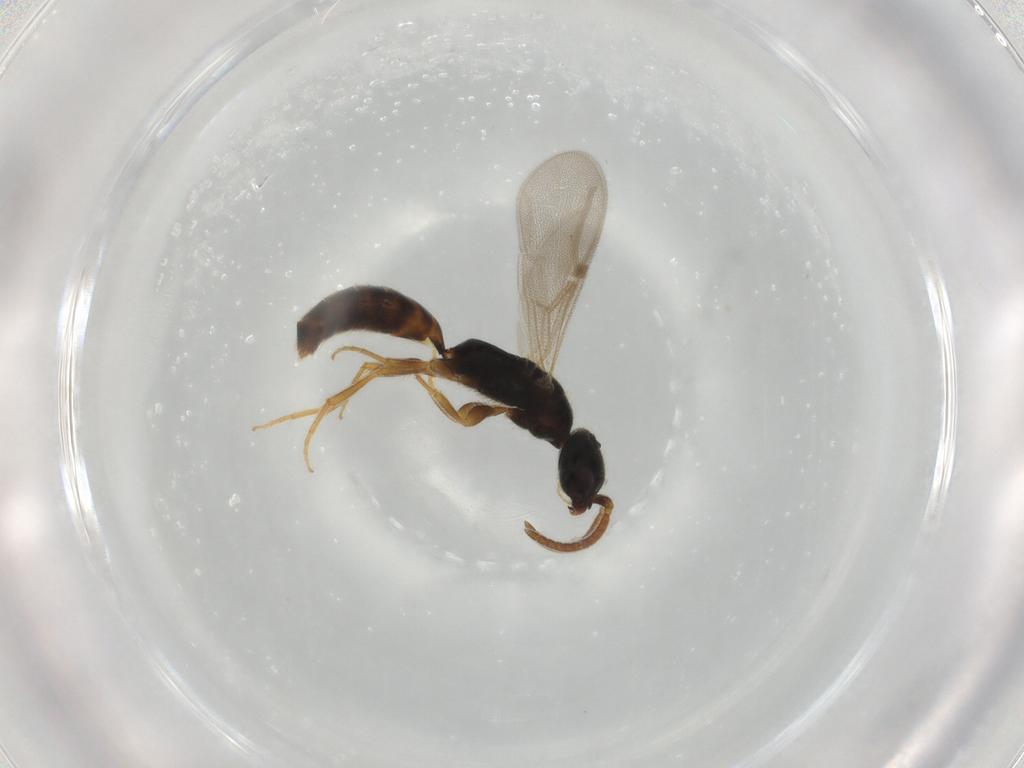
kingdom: Animalia
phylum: Arthropoda
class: Insecta
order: Hymenoptera
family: Bethylidae
